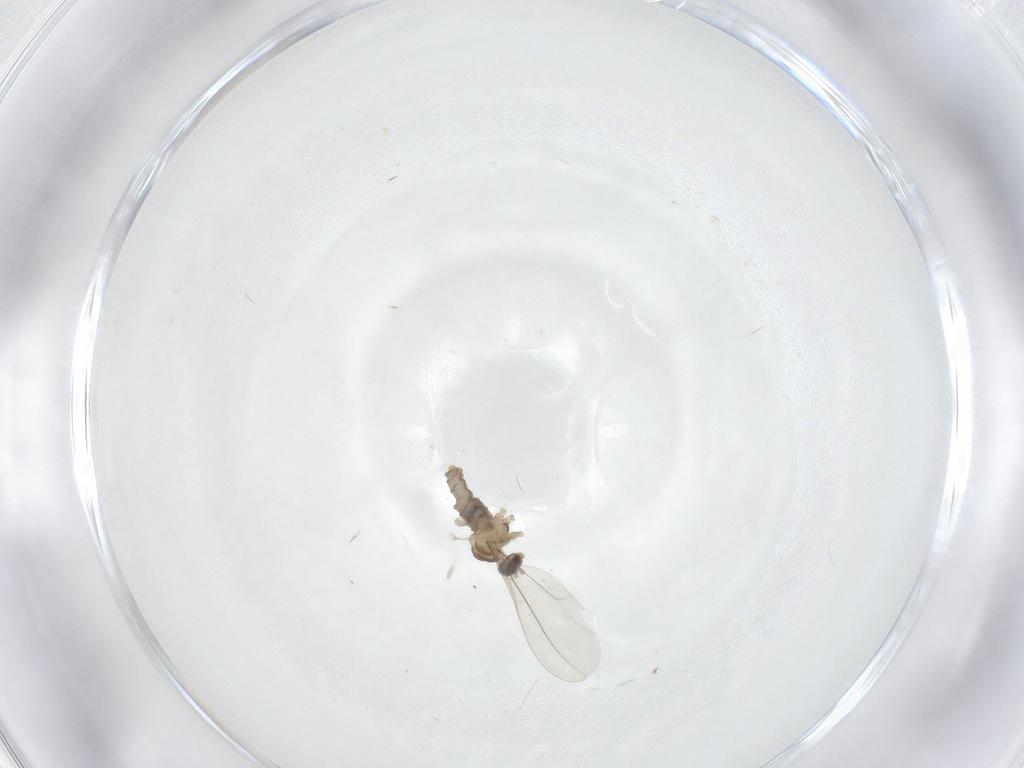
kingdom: Animalia
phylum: Arthropoda
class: Insecta
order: Diptera
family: Cecidomyiidae
